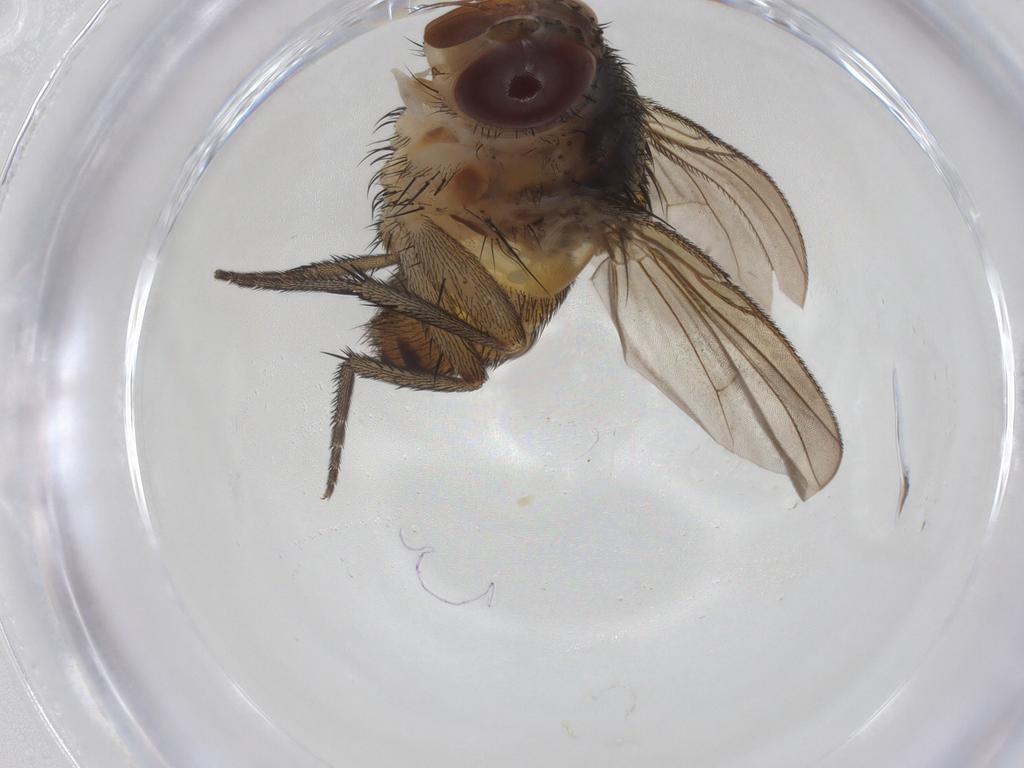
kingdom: Animalia
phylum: Arthropoda
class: Insecta
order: Diptera
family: Tachinidae
